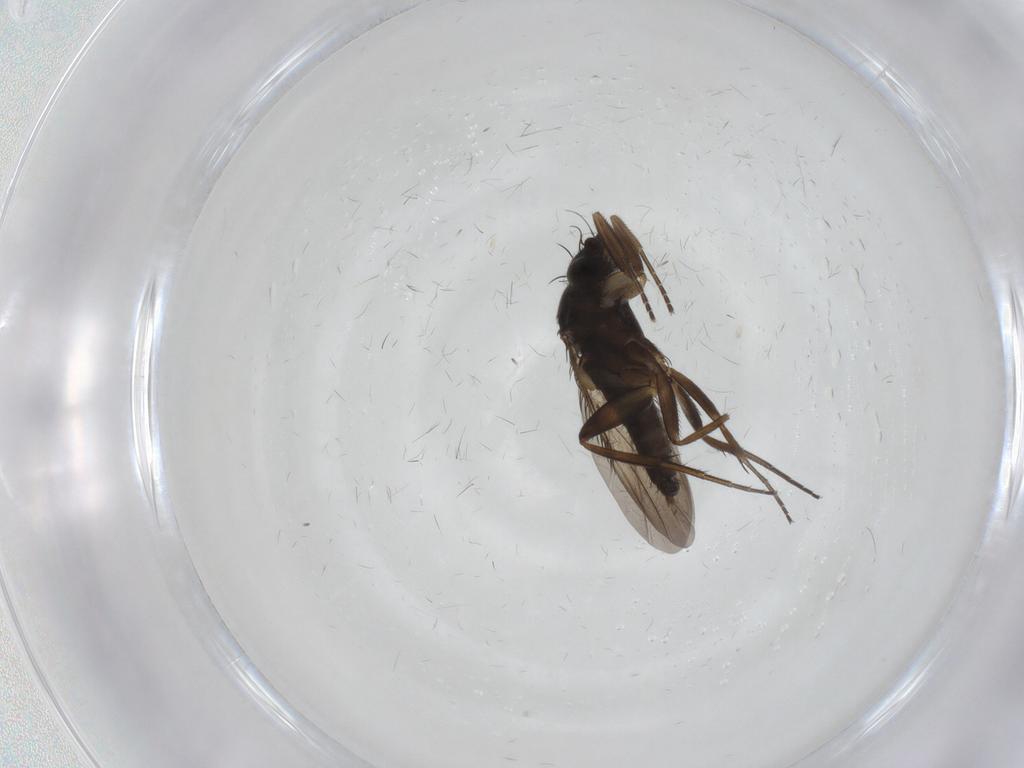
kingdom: Animalia
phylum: Arthropoda
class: Insecta
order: Diptera
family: Phoridae
